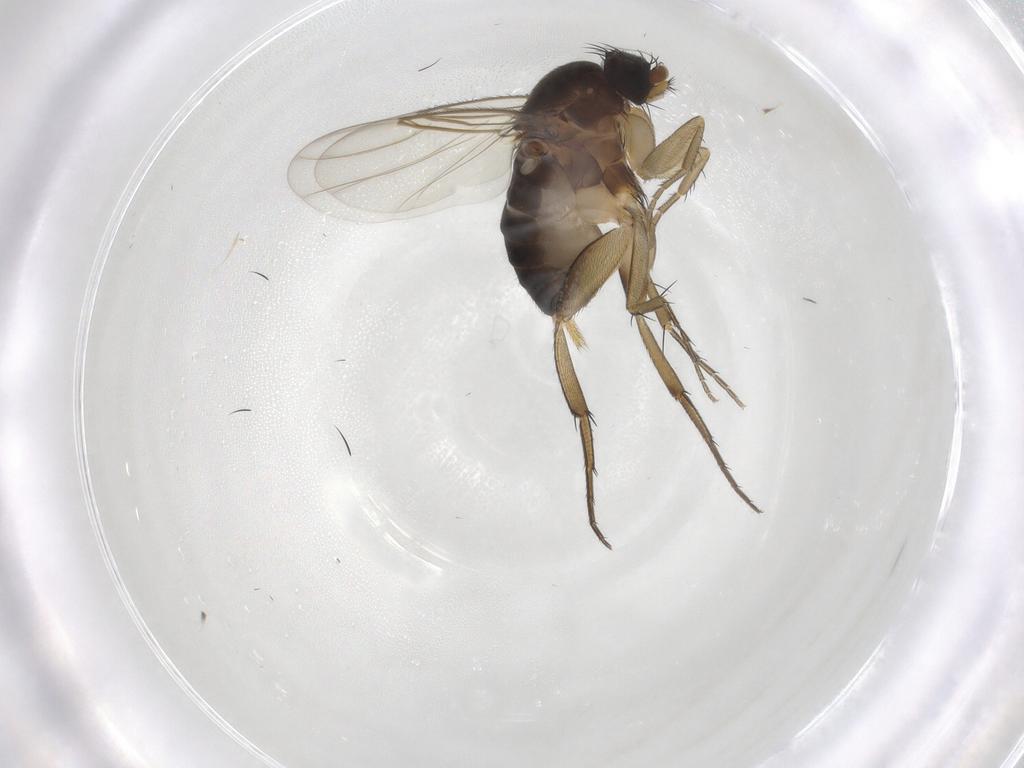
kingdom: Animalia
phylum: Arthropoda
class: Insecta
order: Diptera
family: Phoridae
